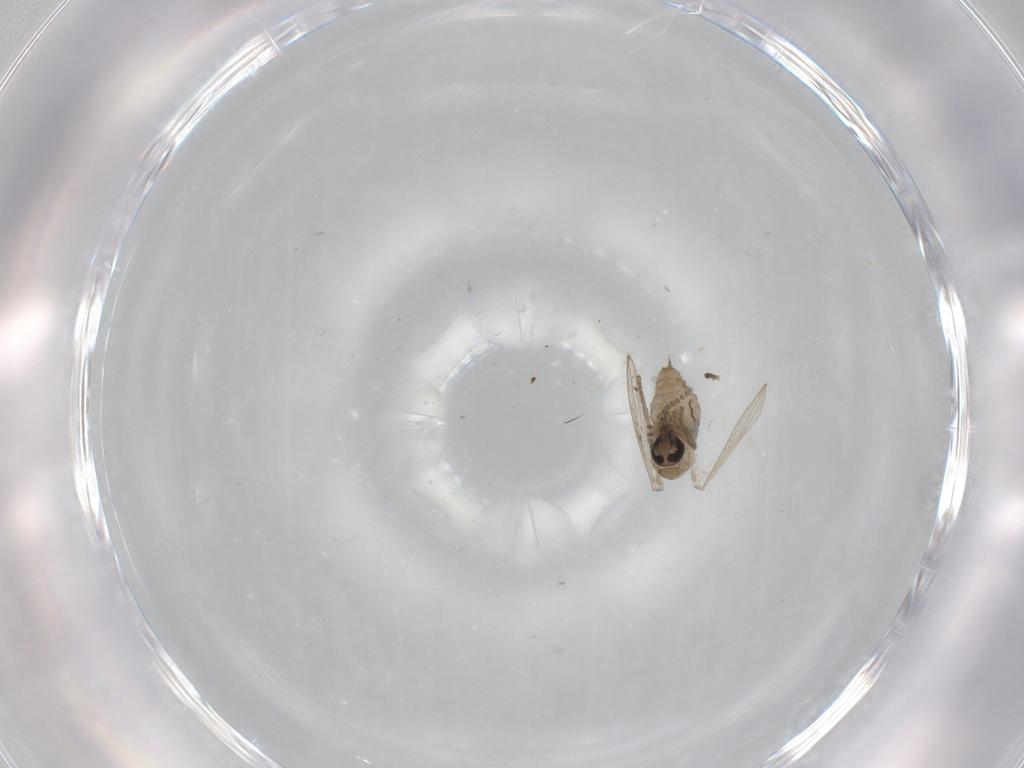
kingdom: Animalia
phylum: Arthropoda
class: Insecta
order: Diptera
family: Psychodidae
